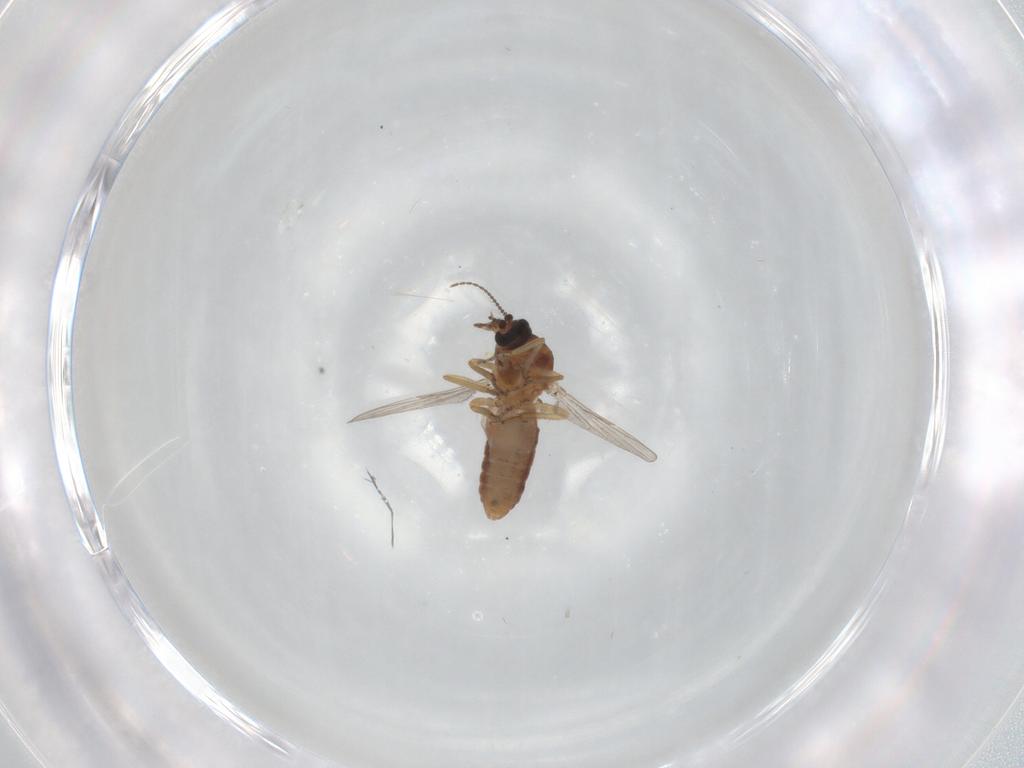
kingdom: Animalia
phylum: Arthropoda
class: Insecta
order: Diptera
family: Ceratopogonidae
